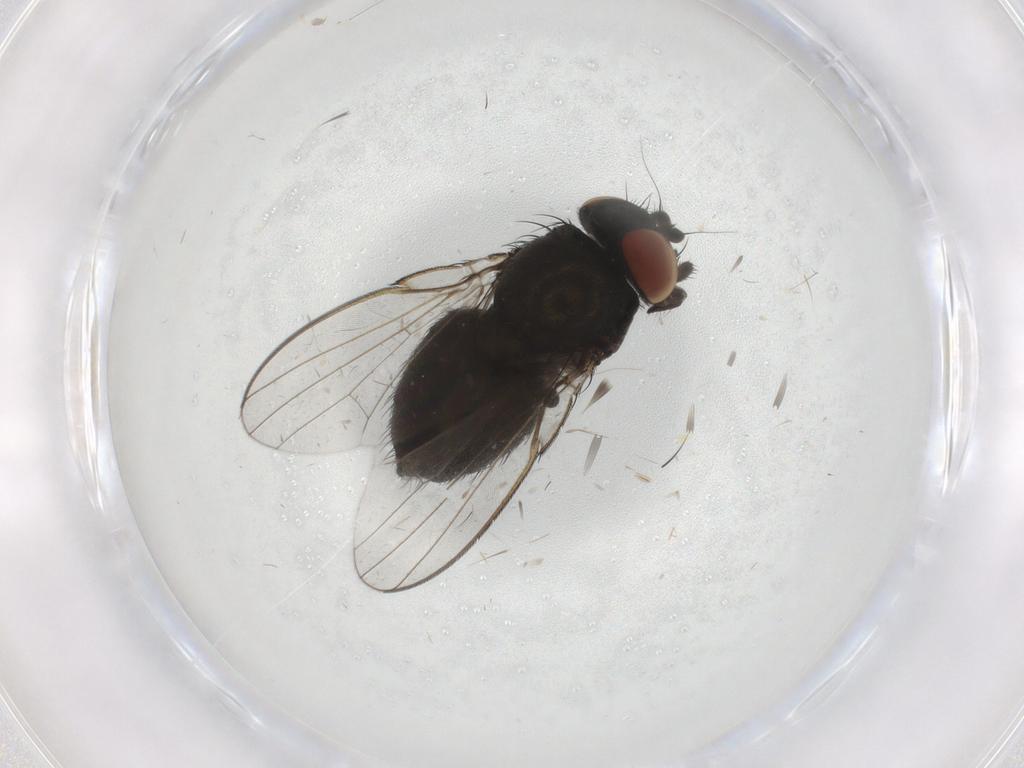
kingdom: Animalia
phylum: Arthropoda
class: Insecta
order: Diptera
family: Milichiidae
